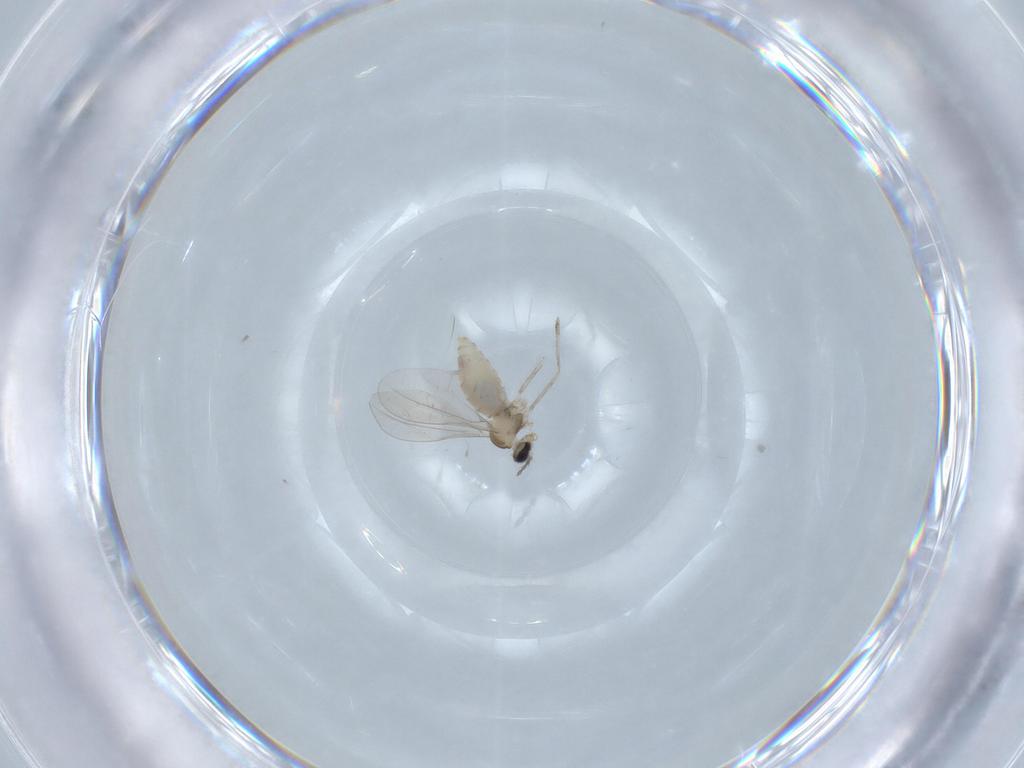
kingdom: Animalia
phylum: Arthropoda
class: Insecta
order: Diptera
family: Cecidomyiidae
